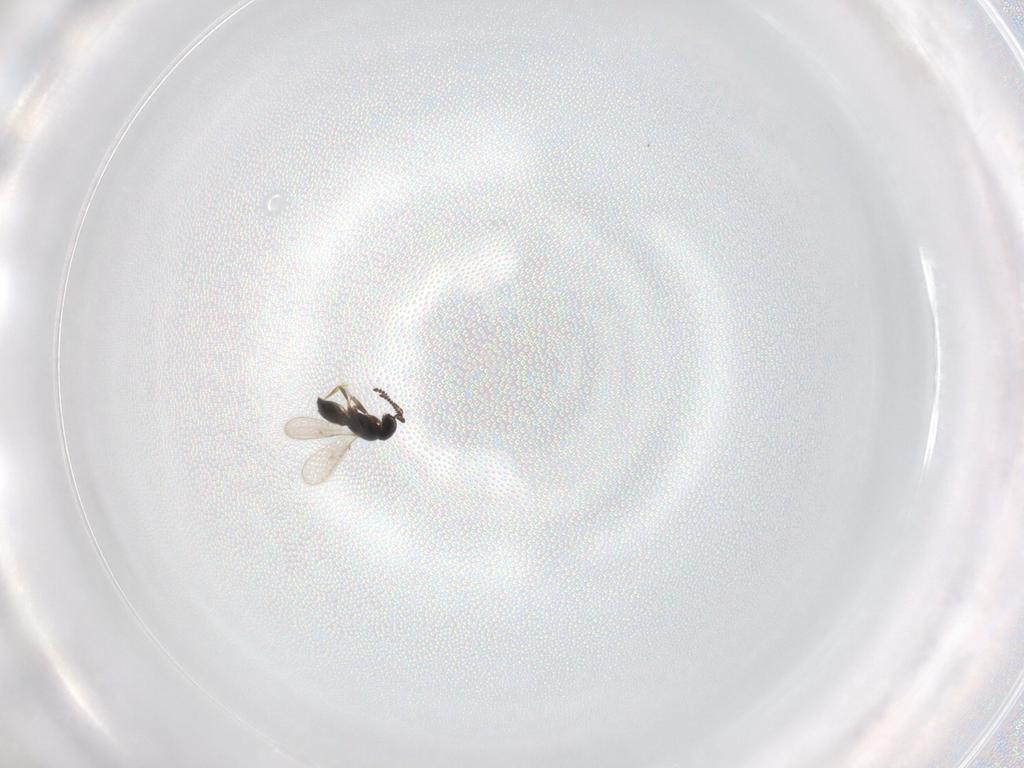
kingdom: Animalia
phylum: Arthropoda
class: Insecta
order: Hymenoptera
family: Scelionidae
